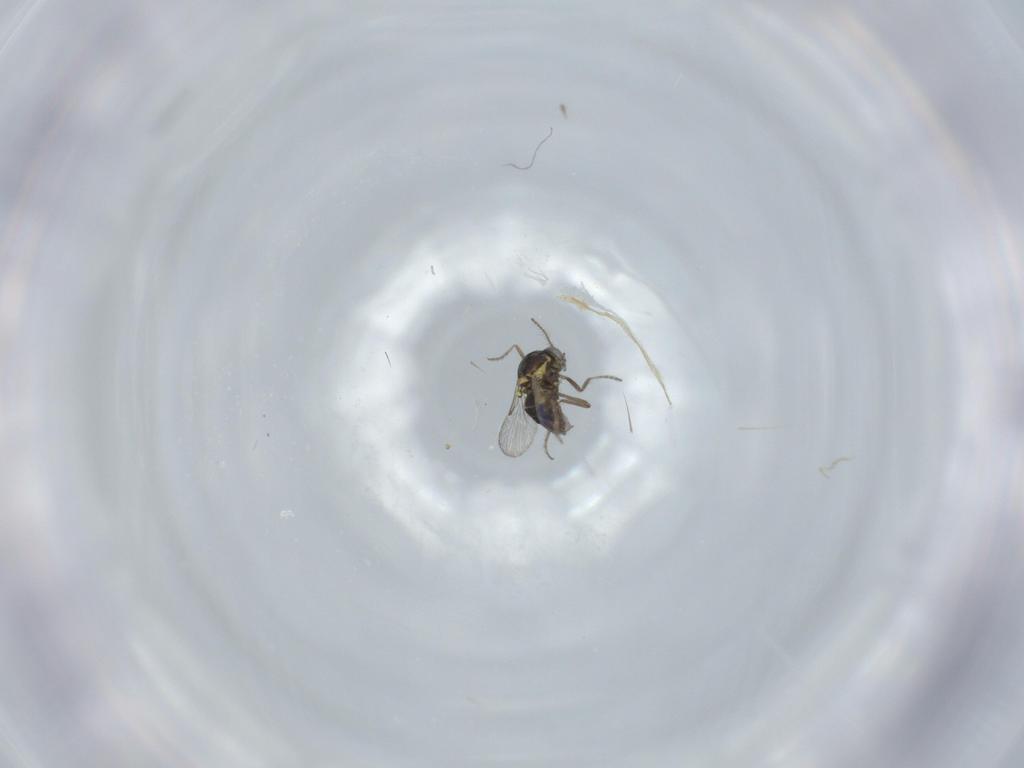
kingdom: Animalia
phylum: Arthropoda
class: Insecta
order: Diptera
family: Ceratopogonidae
